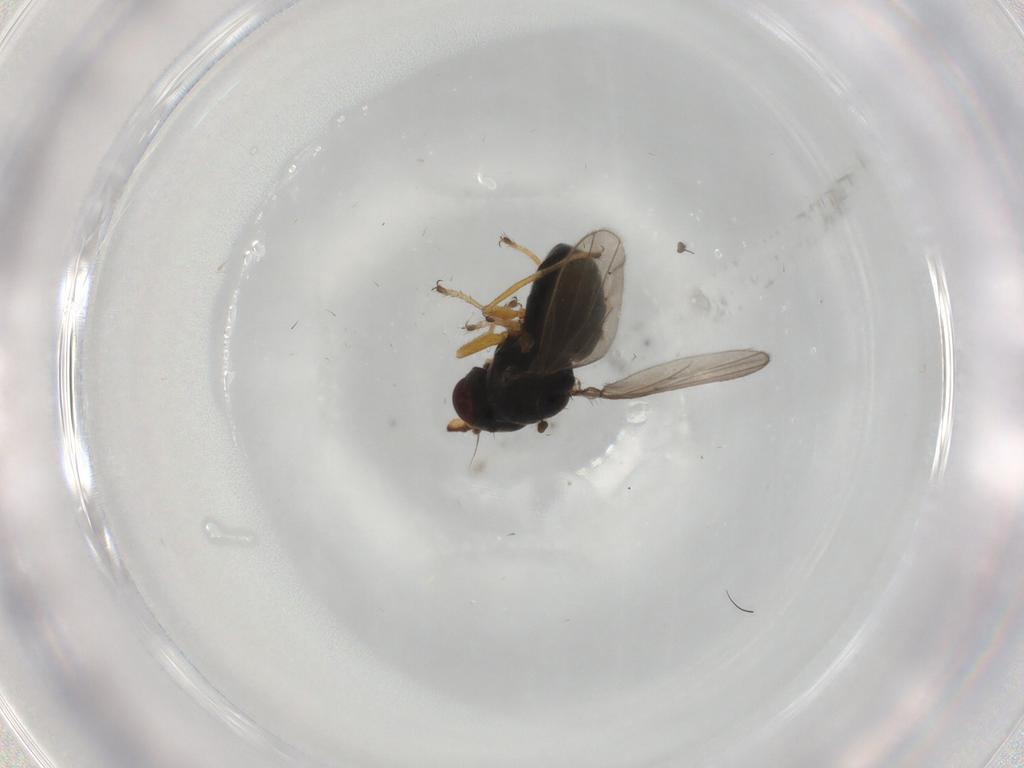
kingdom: Animalia
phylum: Arthropoda
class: Insecta
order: Diptera
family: Ephydridae
